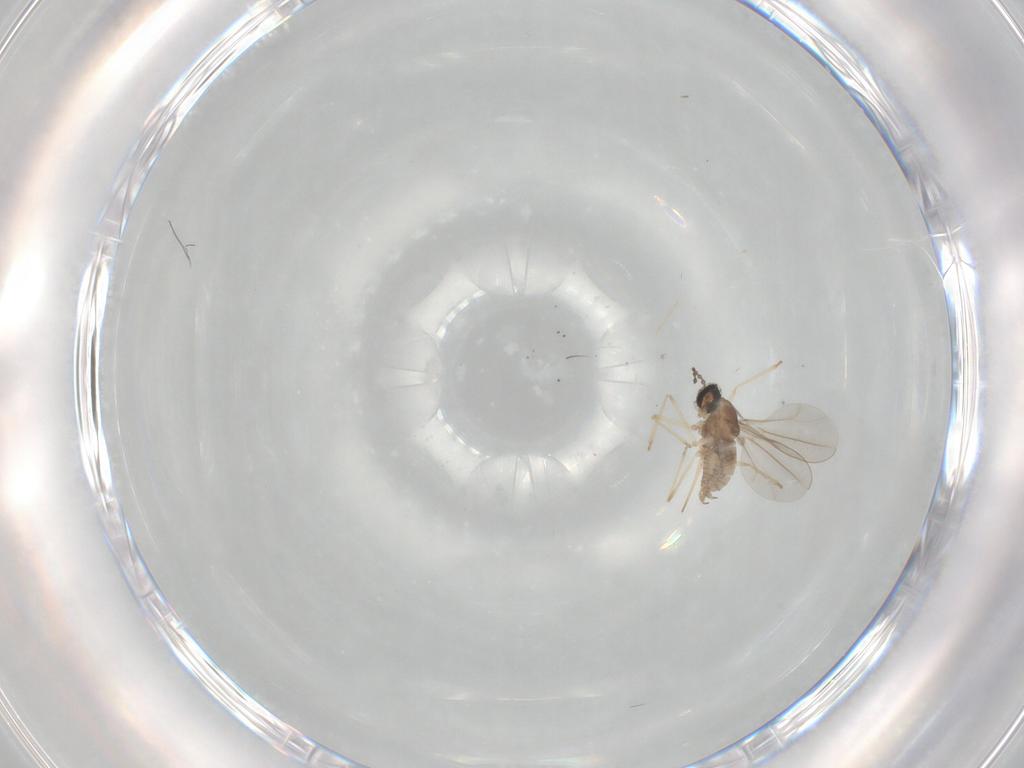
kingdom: Animalia
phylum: Arthropoda
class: Insecta
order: Diptera
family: Cecidomyiidae
